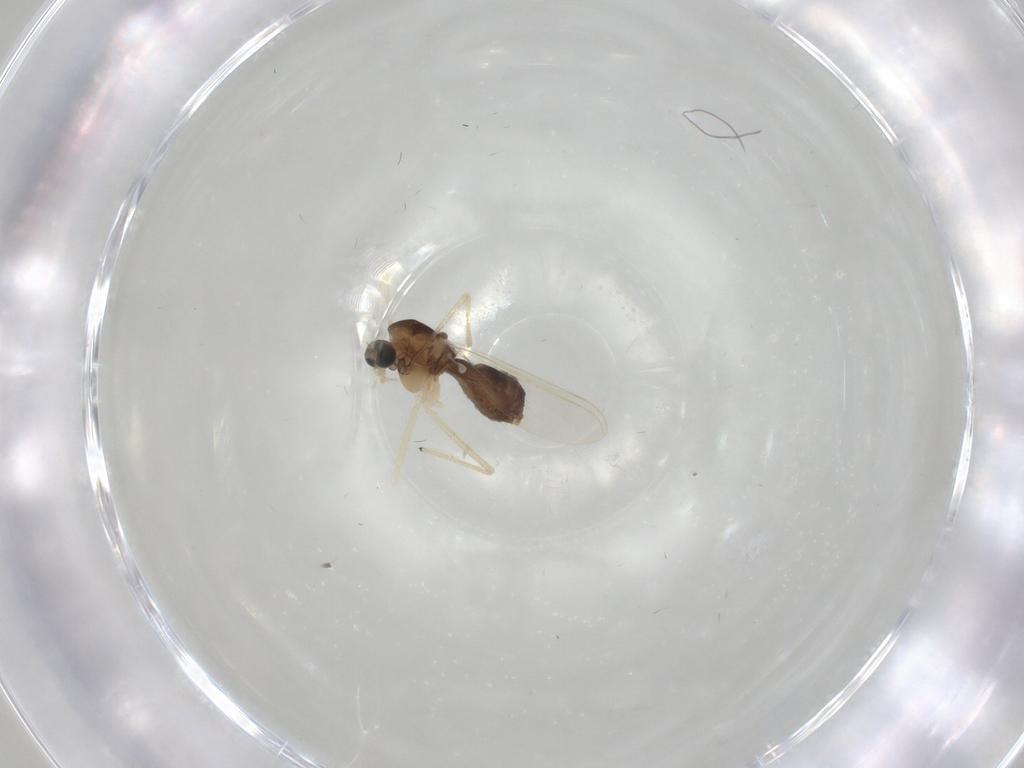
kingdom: Animalia
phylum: Arthropoda
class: Insecta
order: Diptera
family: Chironomidae
